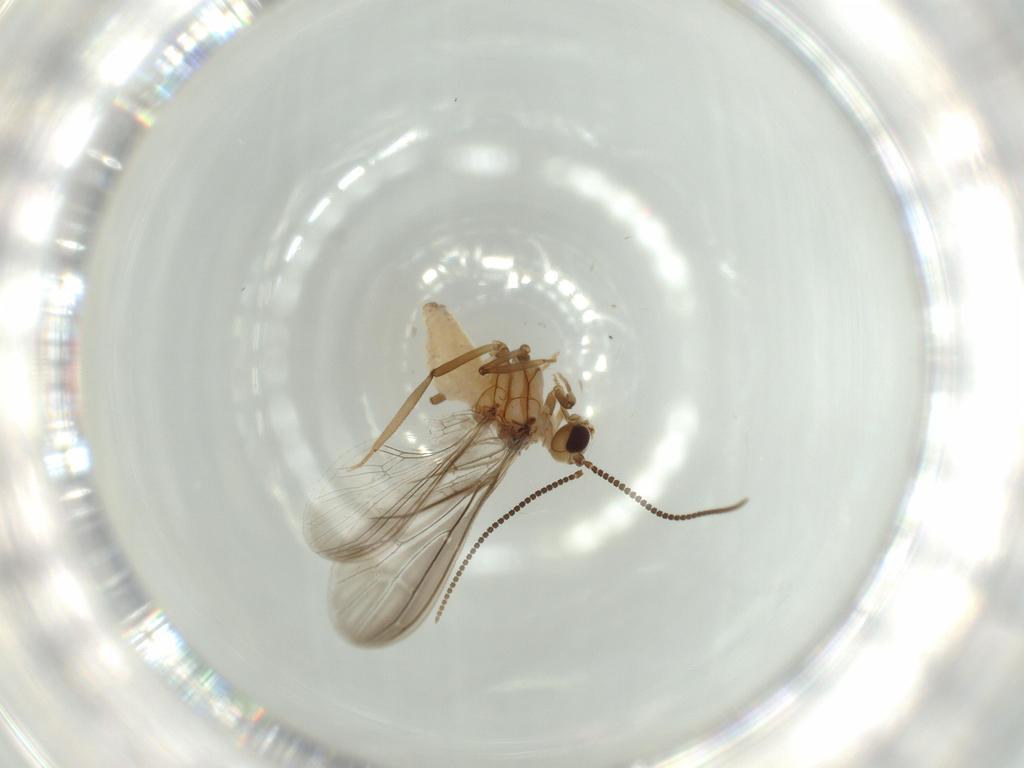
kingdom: Animalia
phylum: Arthropoda
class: Insecta
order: Neuroptera
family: Coniopterygidae
